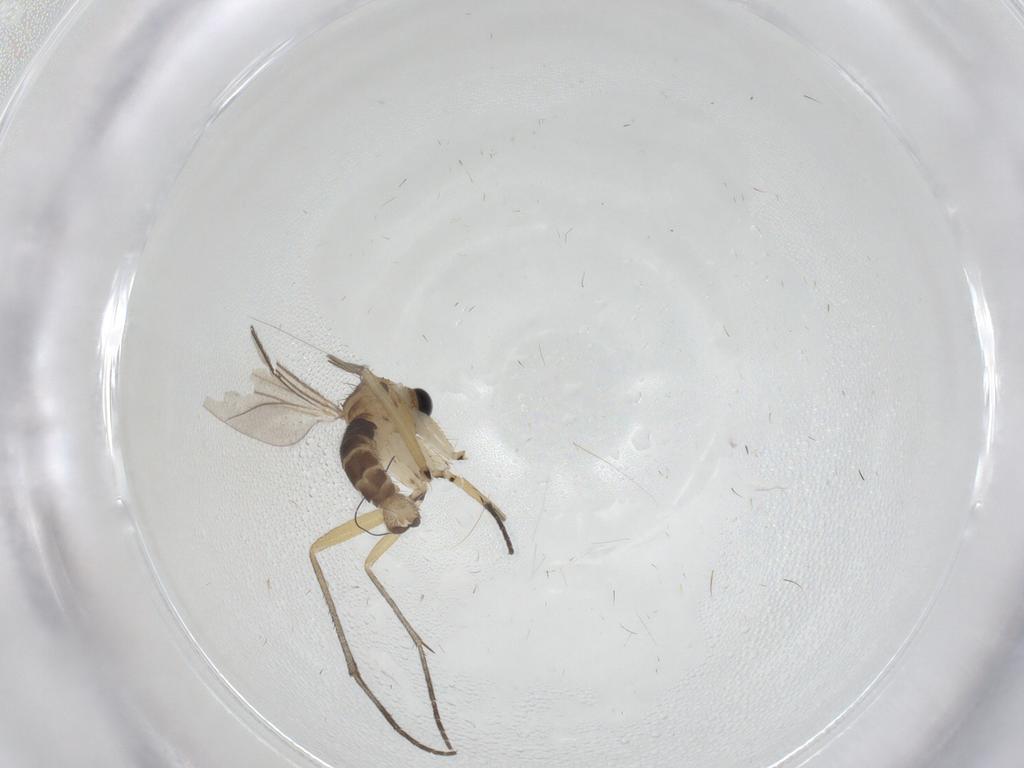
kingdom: Animalia
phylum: Arthropoda
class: Insecta
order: Diptera
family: Sciaridae
